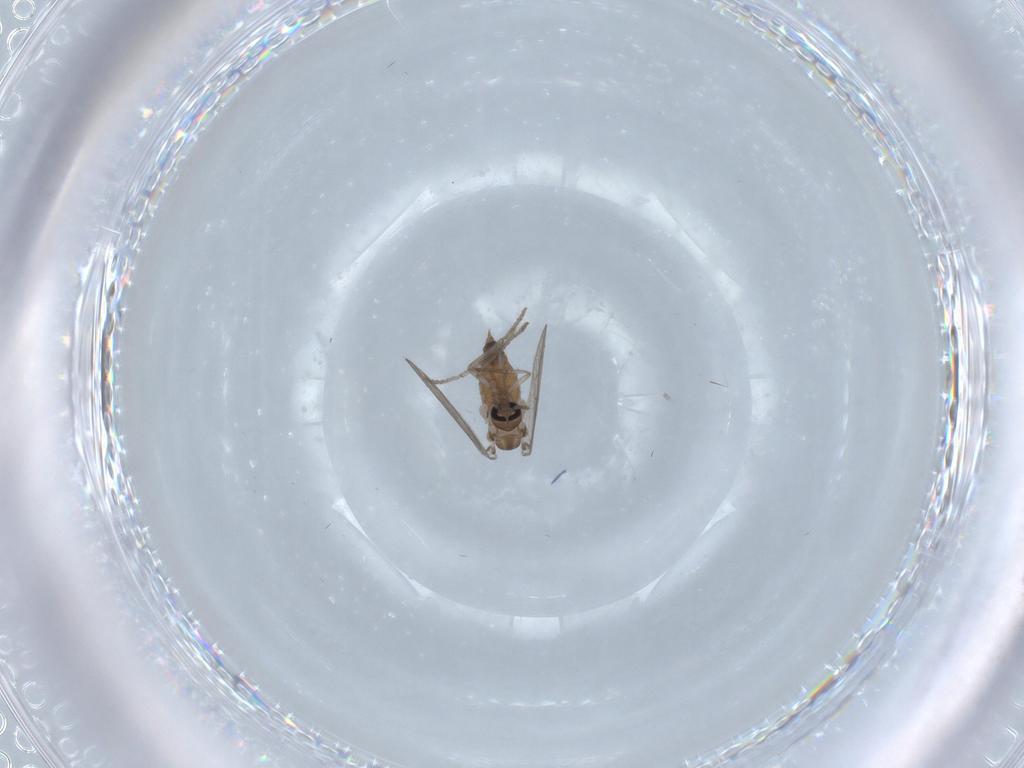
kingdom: Animalia
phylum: Arthropoda
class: Insecta
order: Diptera
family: Psychodidae
